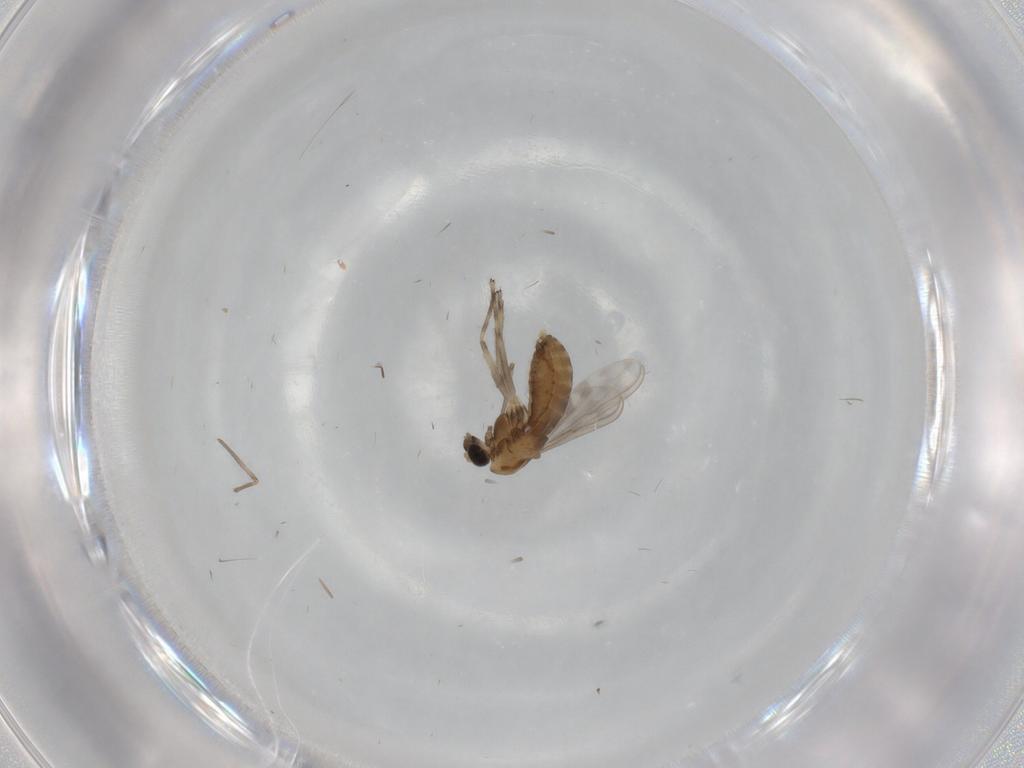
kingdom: Animalia
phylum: Arthropoda
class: Insecta
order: Diptera
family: Chironomidae
